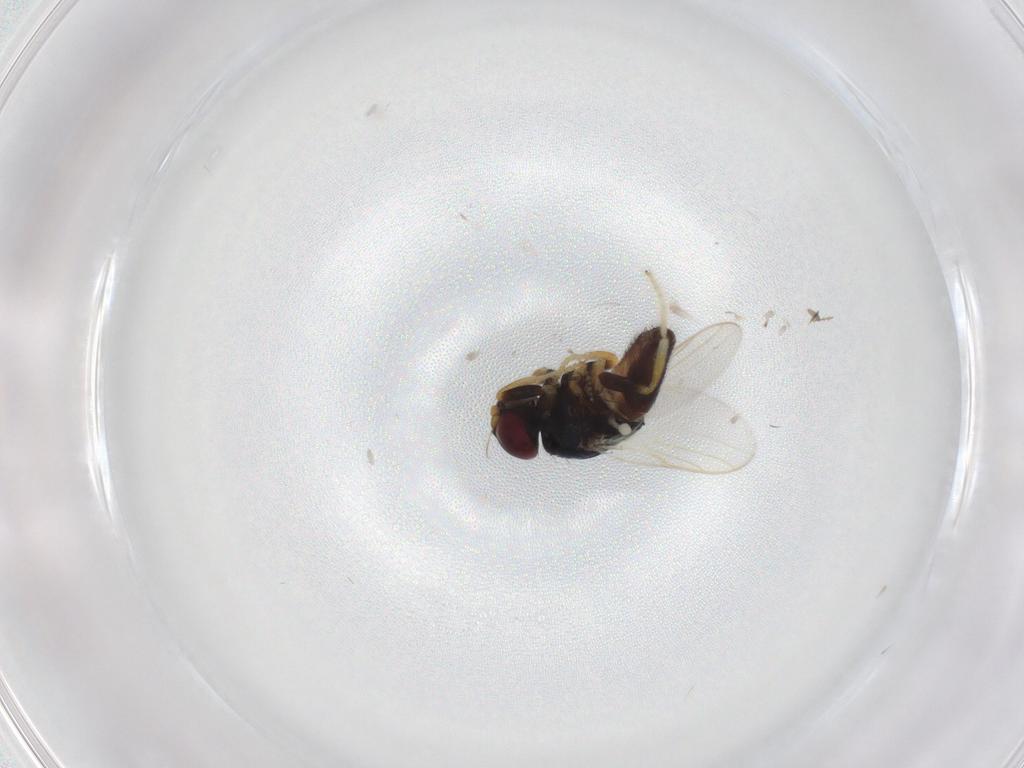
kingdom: Animalia
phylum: Arthropoda
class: Insecta
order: Diptera
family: Chloropidae
